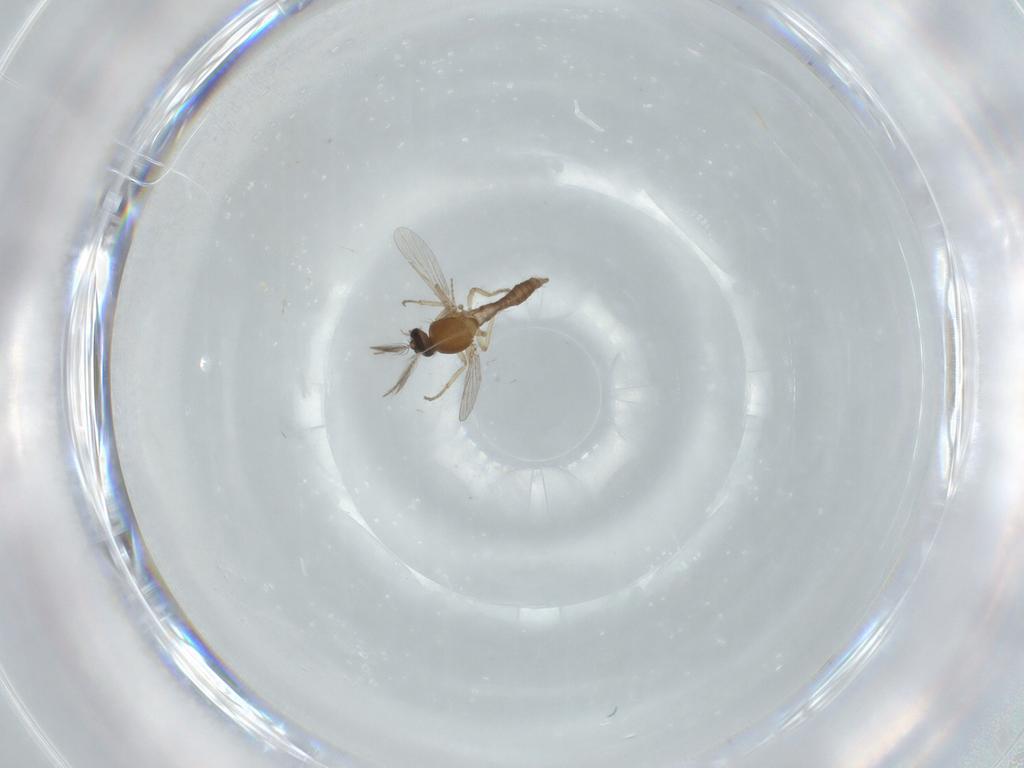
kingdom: Animalia
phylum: Arthropoda
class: Insecta
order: Diptera
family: Ceratopogonidae
